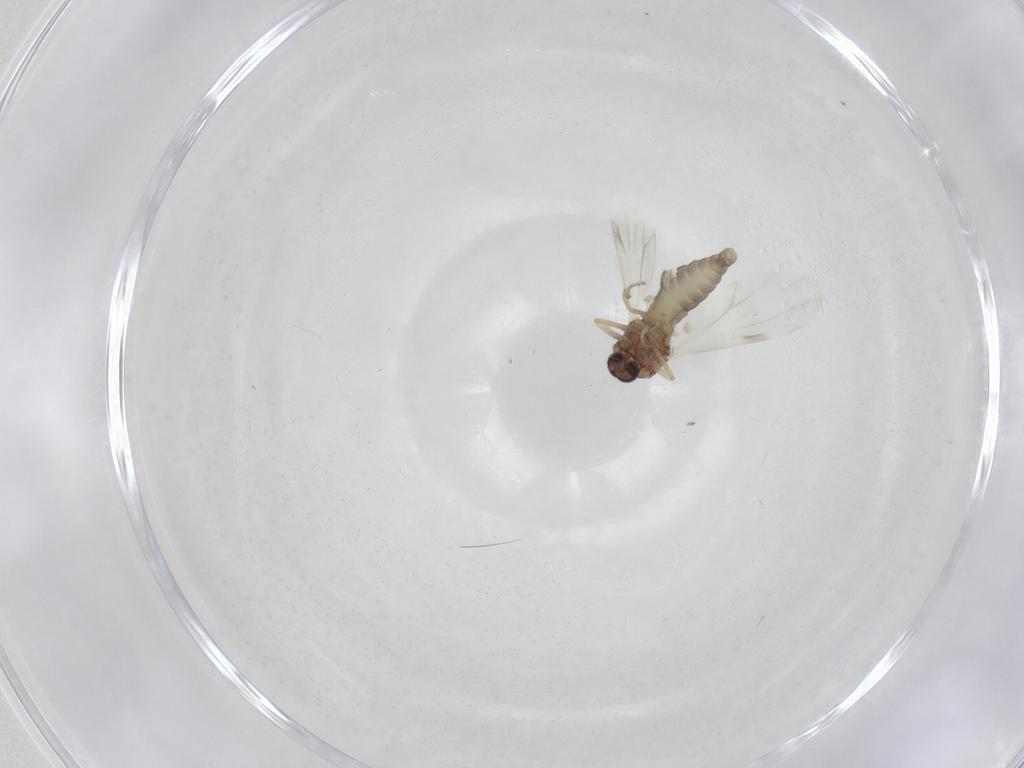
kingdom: Animalia
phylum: Arthropoda
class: Insecta
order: Diptera
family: Ceratopogonidae
